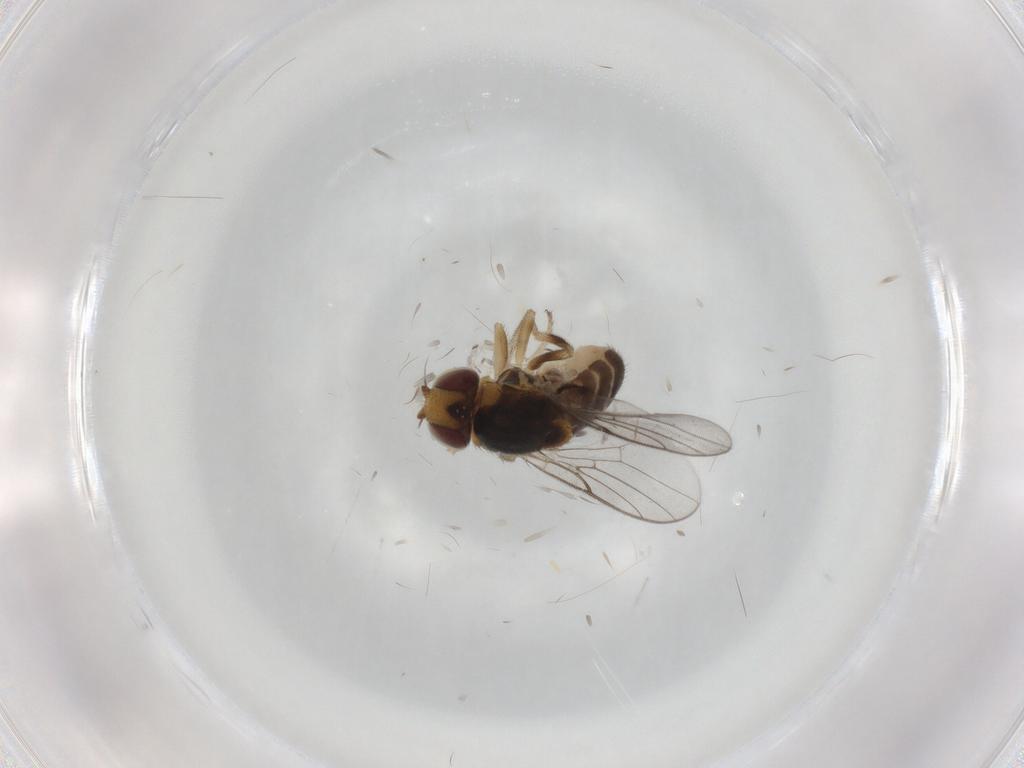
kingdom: Animalia
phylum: Arthropoda
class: Insecta
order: Diptera
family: Chloropidae
